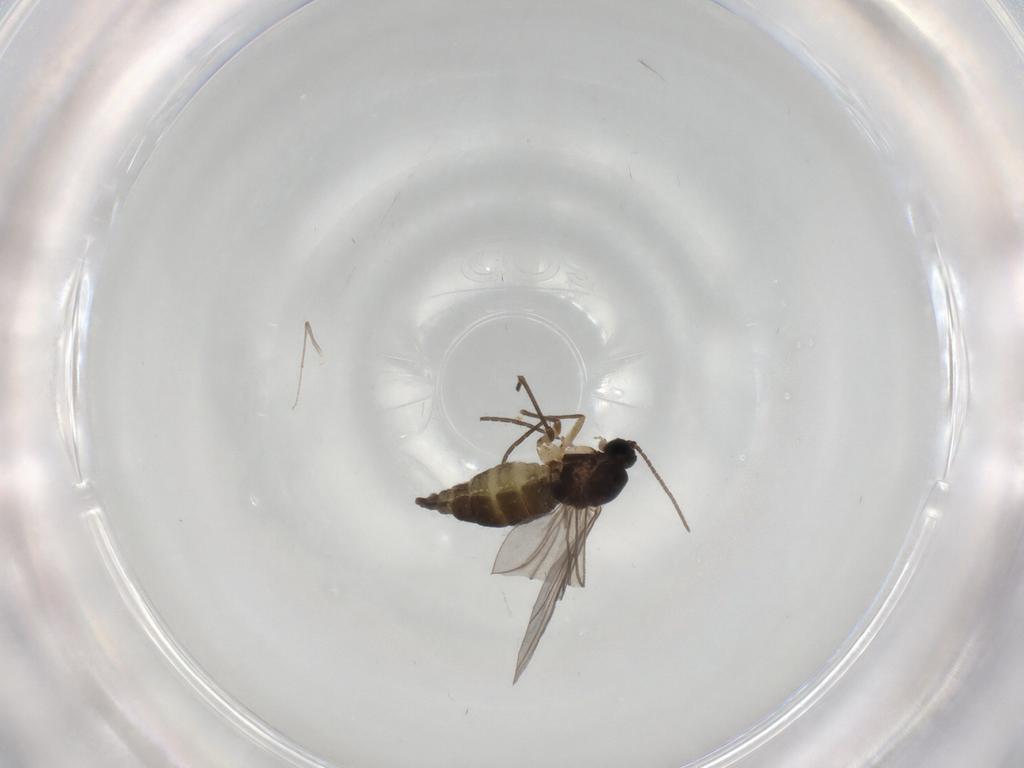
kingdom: Animalia
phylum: Arthropoda
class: Insecta
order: Diptera
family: Sciaridae
